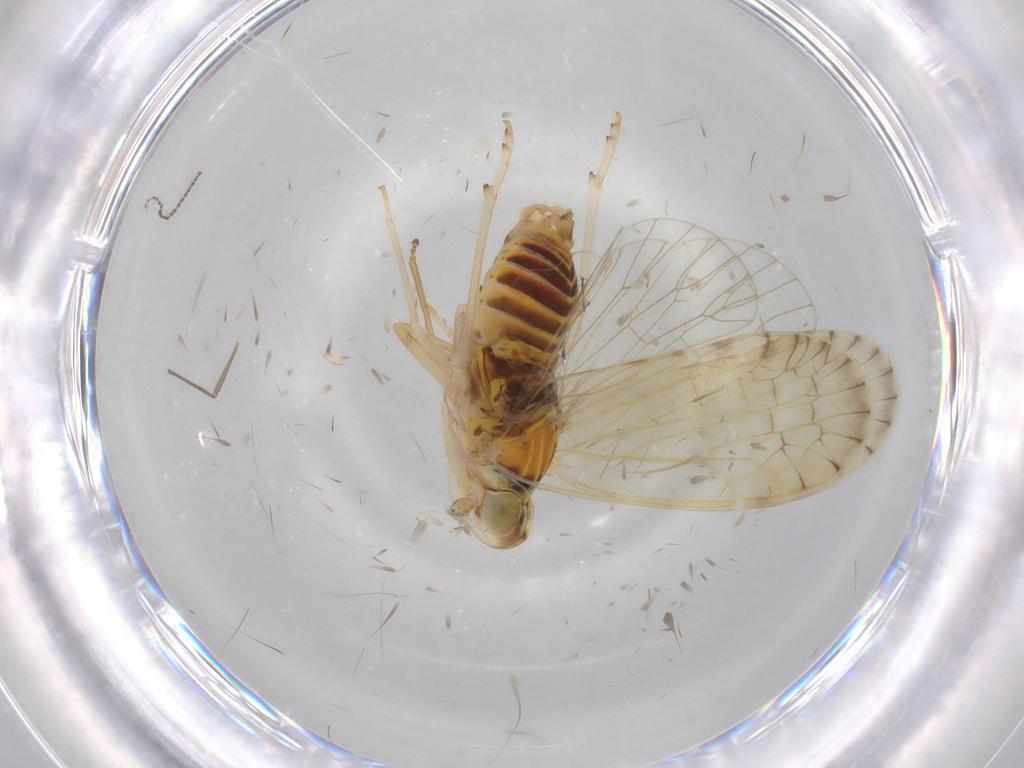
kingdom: Animalia
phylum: Arthropoda
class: Insecta
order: Hemiptera
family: Kinnaridae
